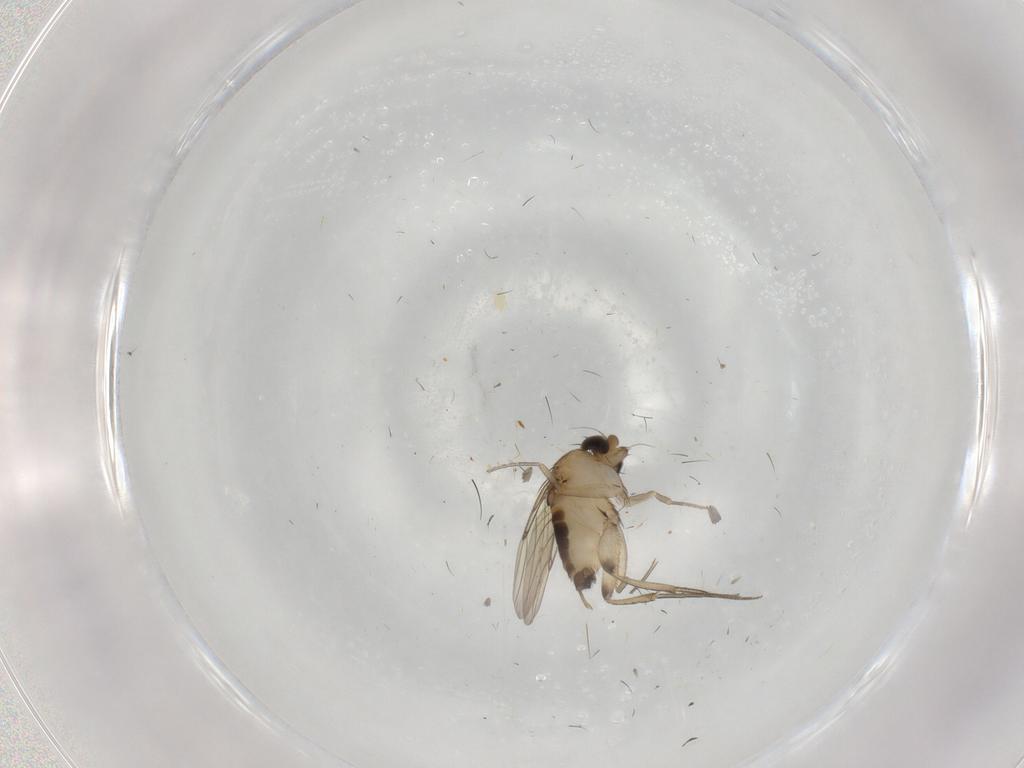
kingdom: Animalia
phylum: Arthropoda
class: Insecta
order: Diptera
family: Phoridae
